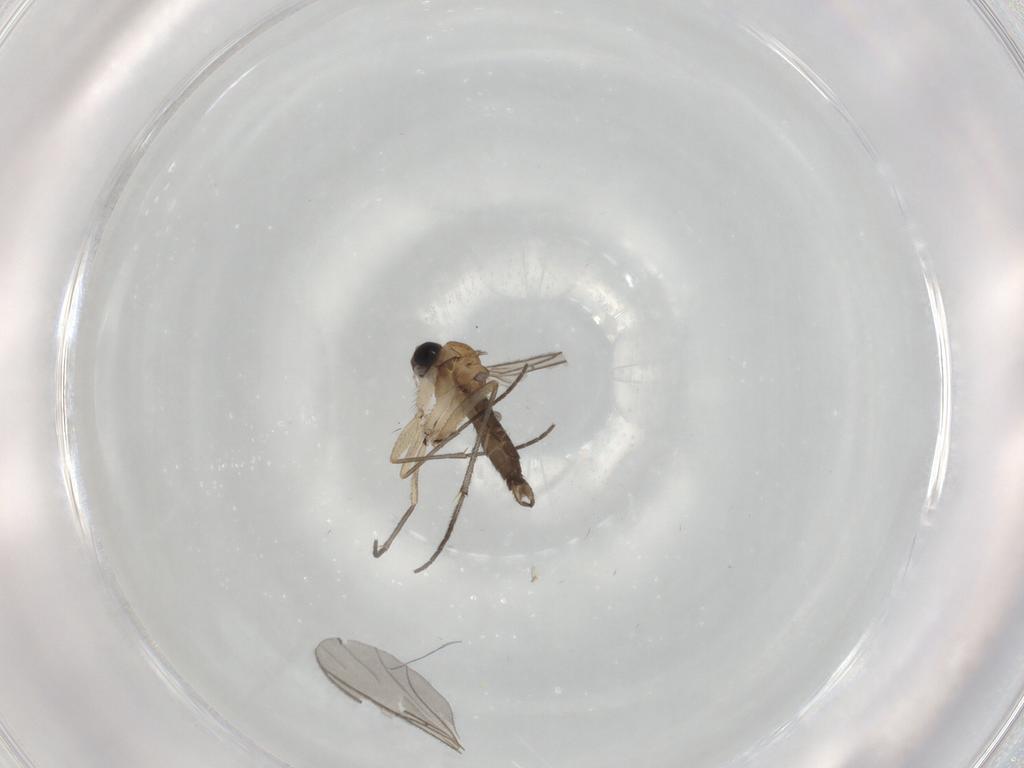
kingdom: Animalia
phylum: Arthropoda
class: Insecta
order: Diptera
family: Sciaridae
